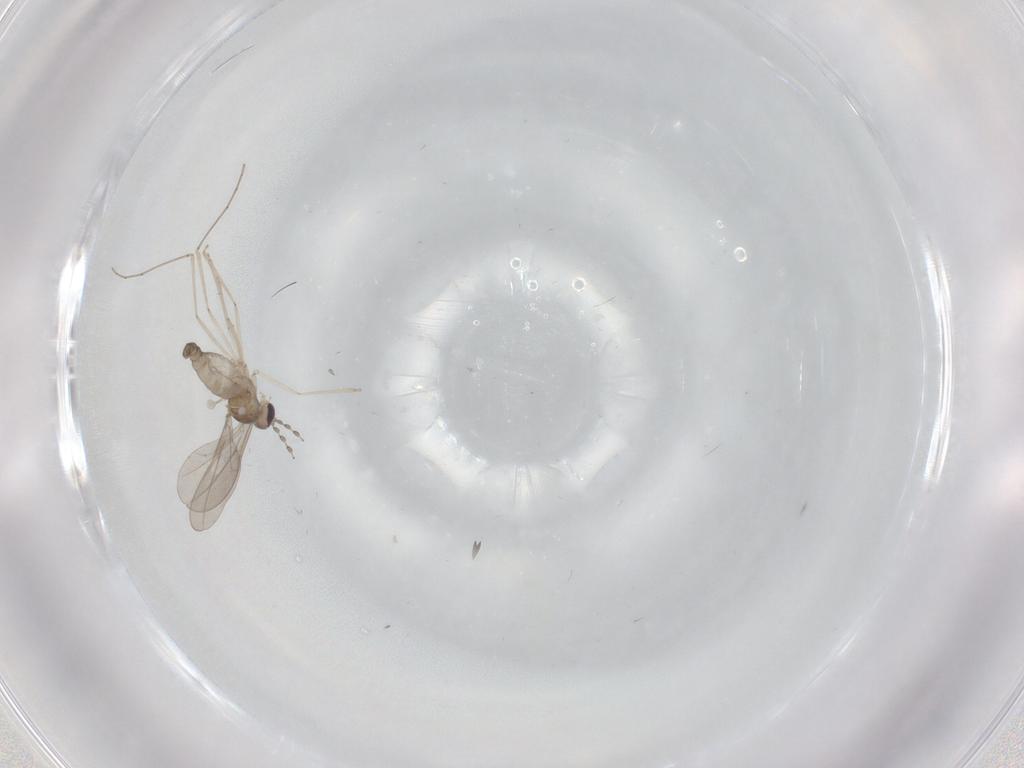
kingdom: Animalia
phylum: Arthropoda
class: Insecta
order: Diptera
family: Cecidomyiidae
